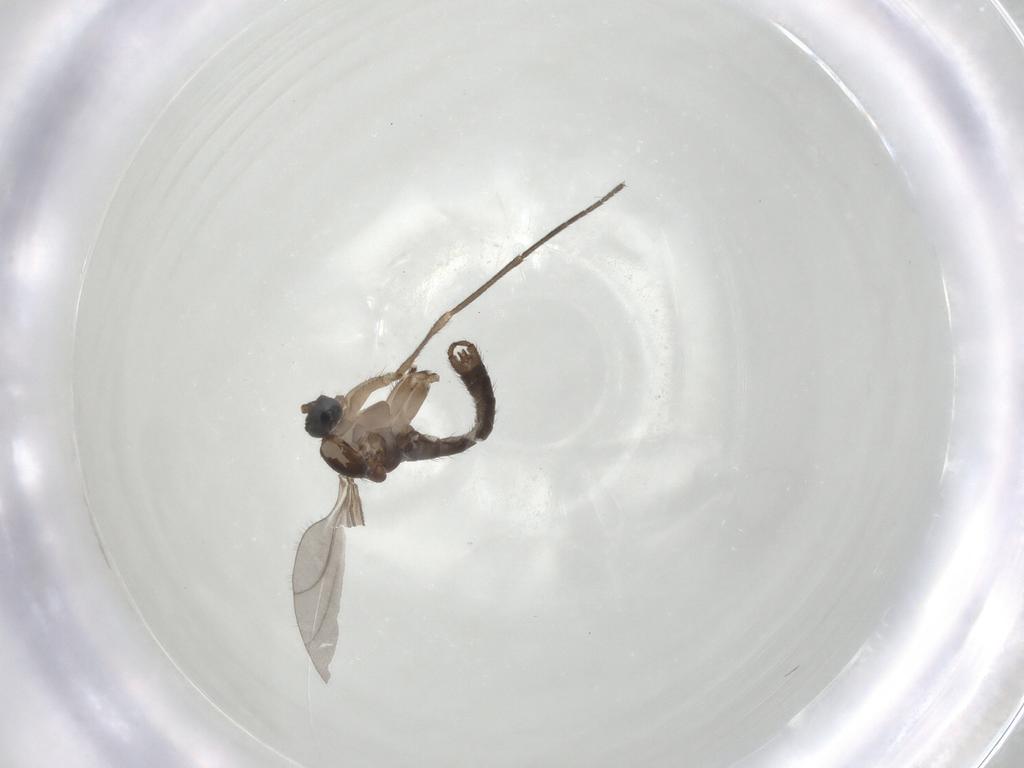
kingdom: Animalia
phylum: Arthropoda
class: Insecta
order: Diptera
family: Sciaridae
